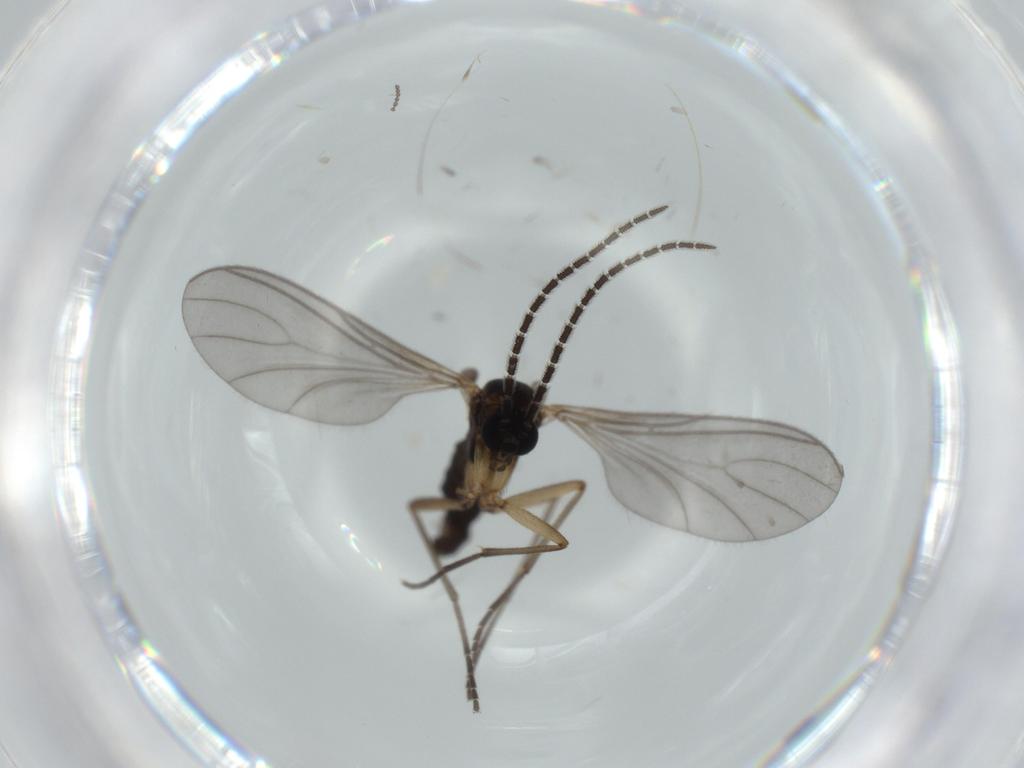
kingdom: Animalia
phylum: Arthropoda
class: Insecta
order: Diptera
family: Sciaridae
